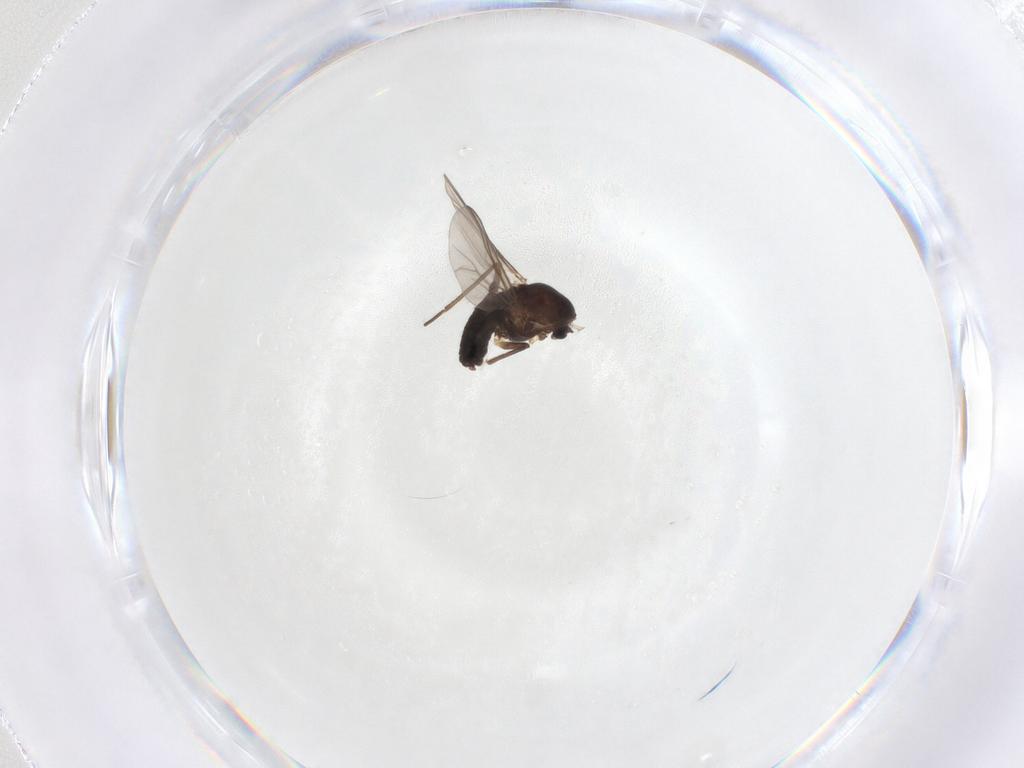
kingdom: Animalia
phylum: Arthropoda
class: Insecta
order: Diptera
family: Chironomidae
